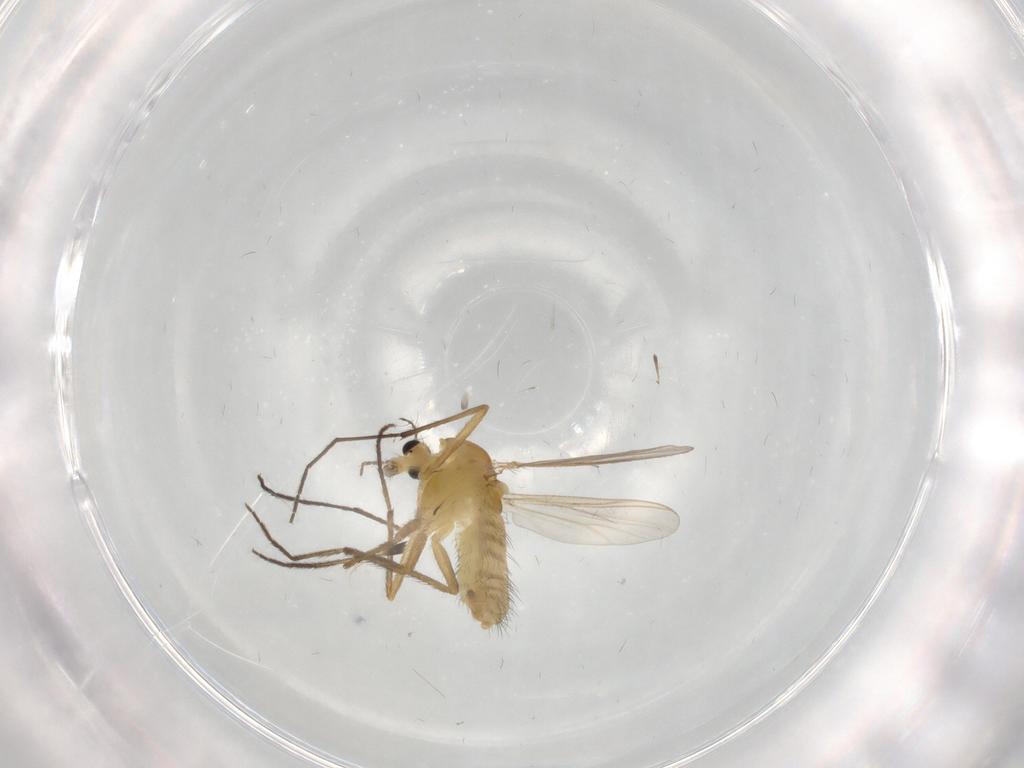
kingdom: Animalia
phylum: Arthropoda
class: Insecta
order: Diptera
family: Chironomidae
